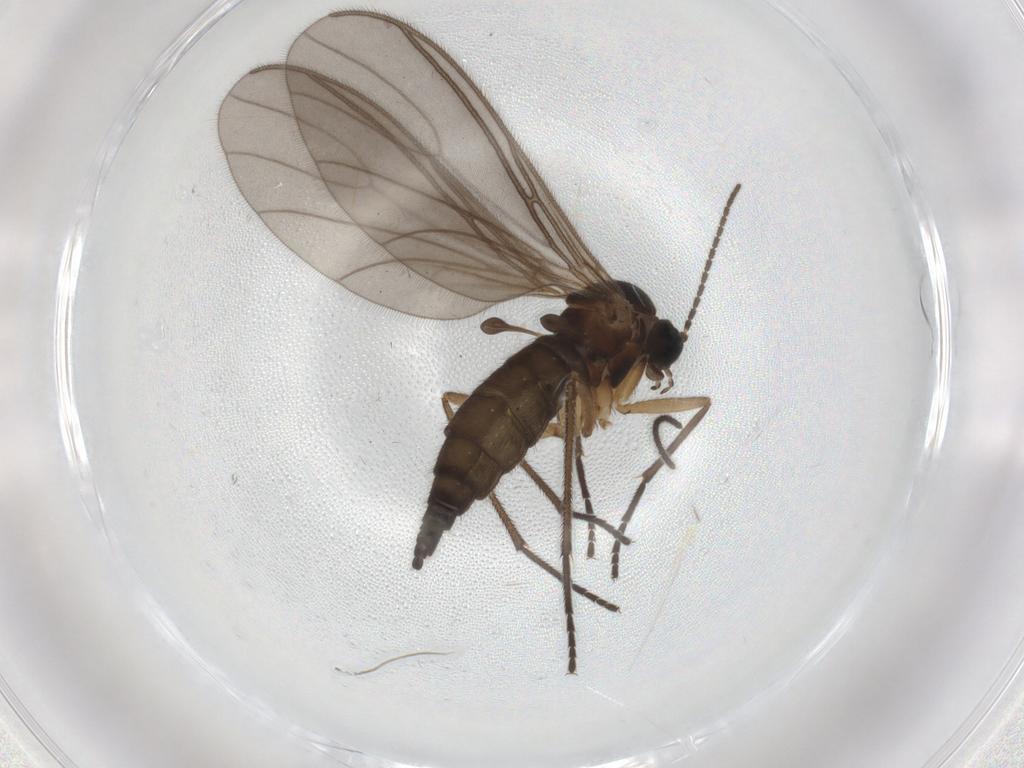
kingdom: Animalia
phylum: Arthropoda
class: Insecta
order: Diptera
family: Sciaridae
